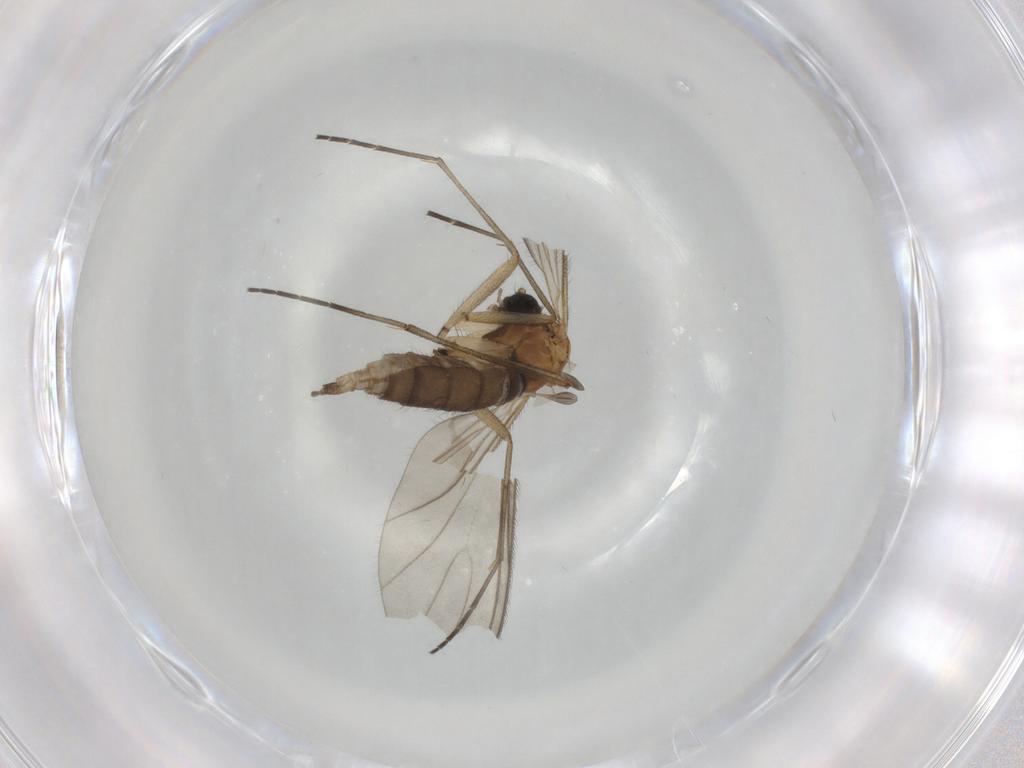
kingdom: Animalia
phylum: Arthropoda
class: Insecta
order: Diptera
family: Sciaridae
